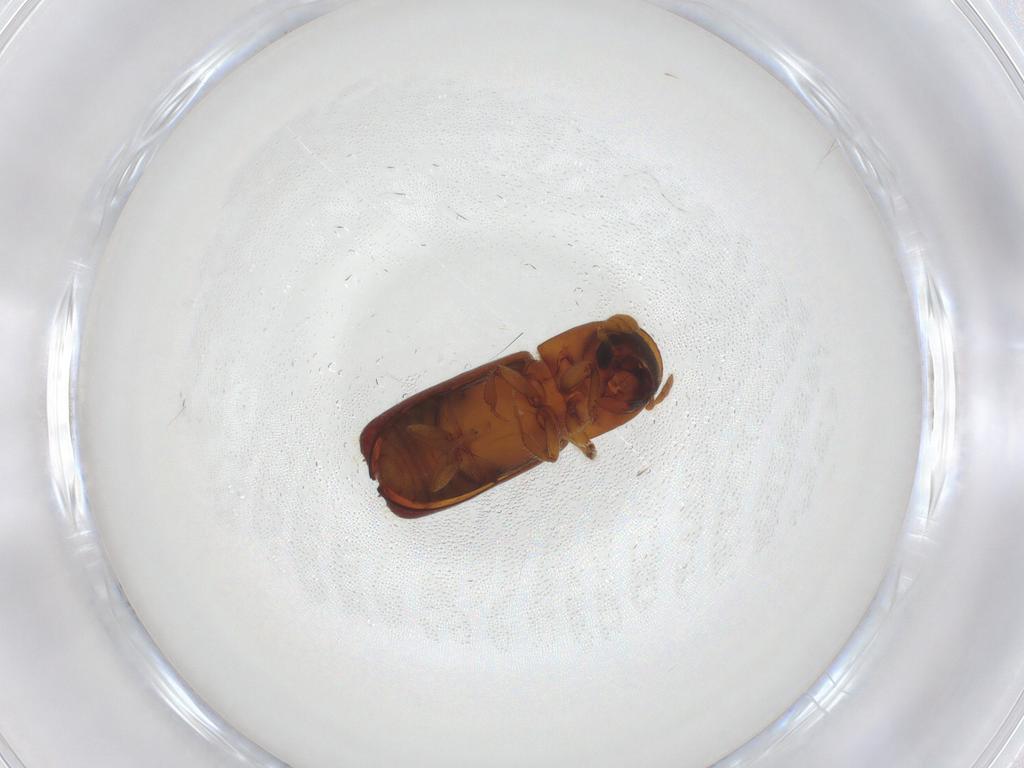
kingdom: Animalia
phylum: Arthropoda
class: Insecta
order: Coleoptera
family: Curculionidae
